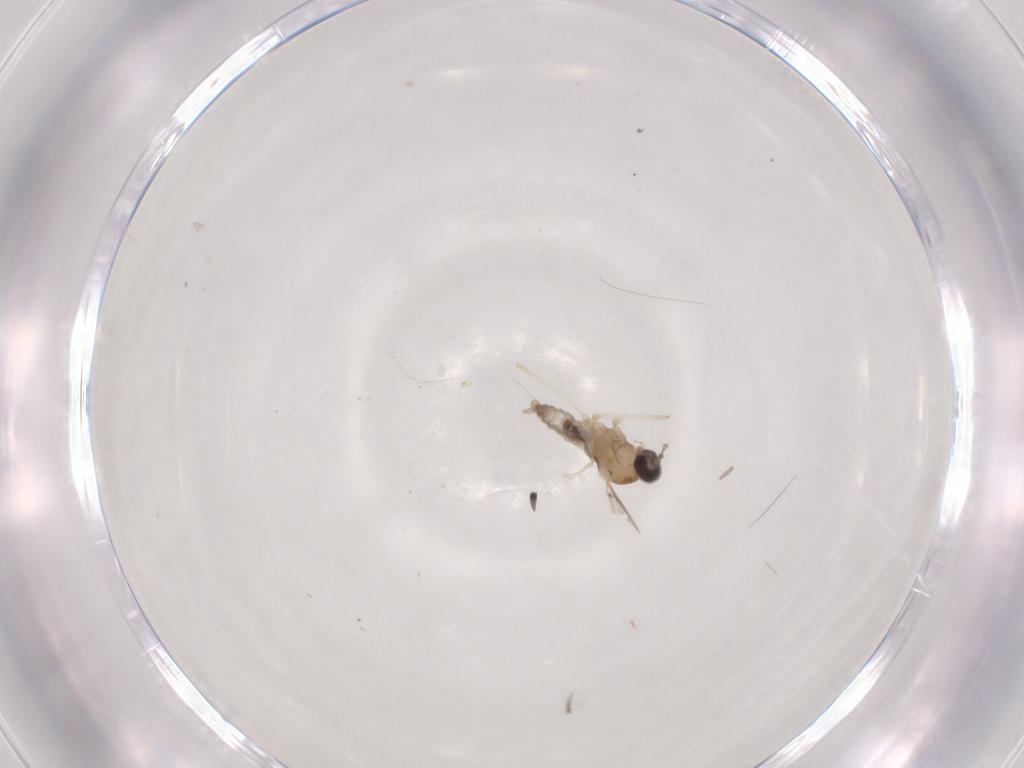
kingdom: Animalia
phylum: Arthropoda
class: Insecta
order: Diptera
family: Cecidomyiidae
